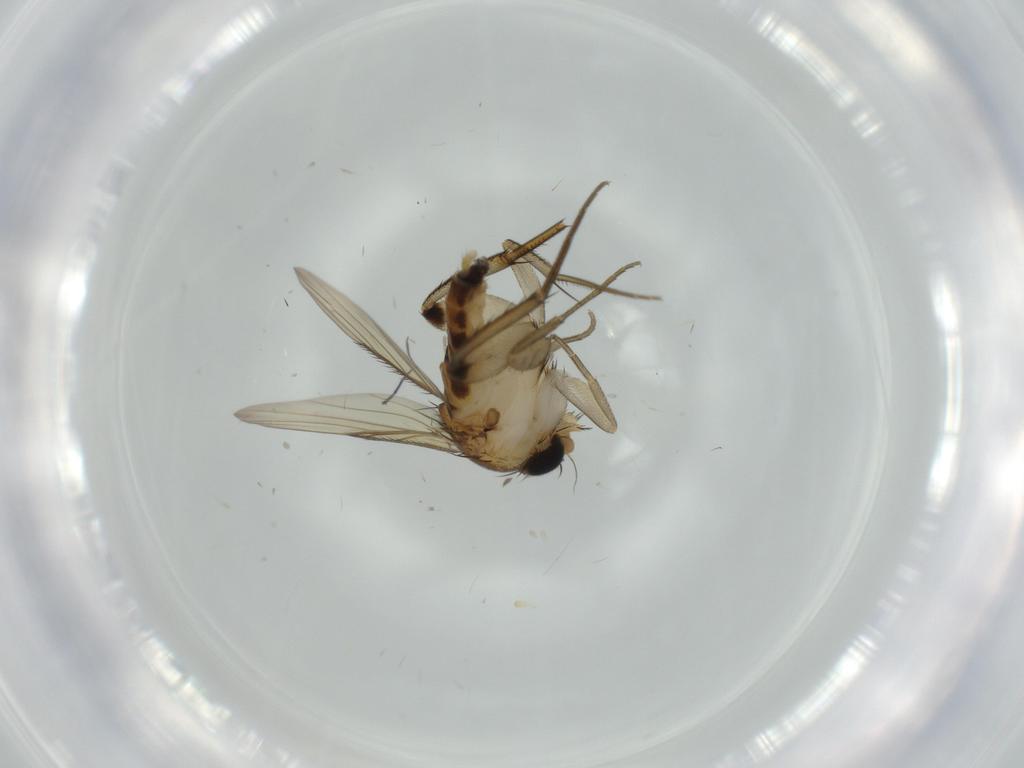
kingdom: Animalia
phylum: Arthropoda
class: Insecta
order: Diptera
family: Phoridae
